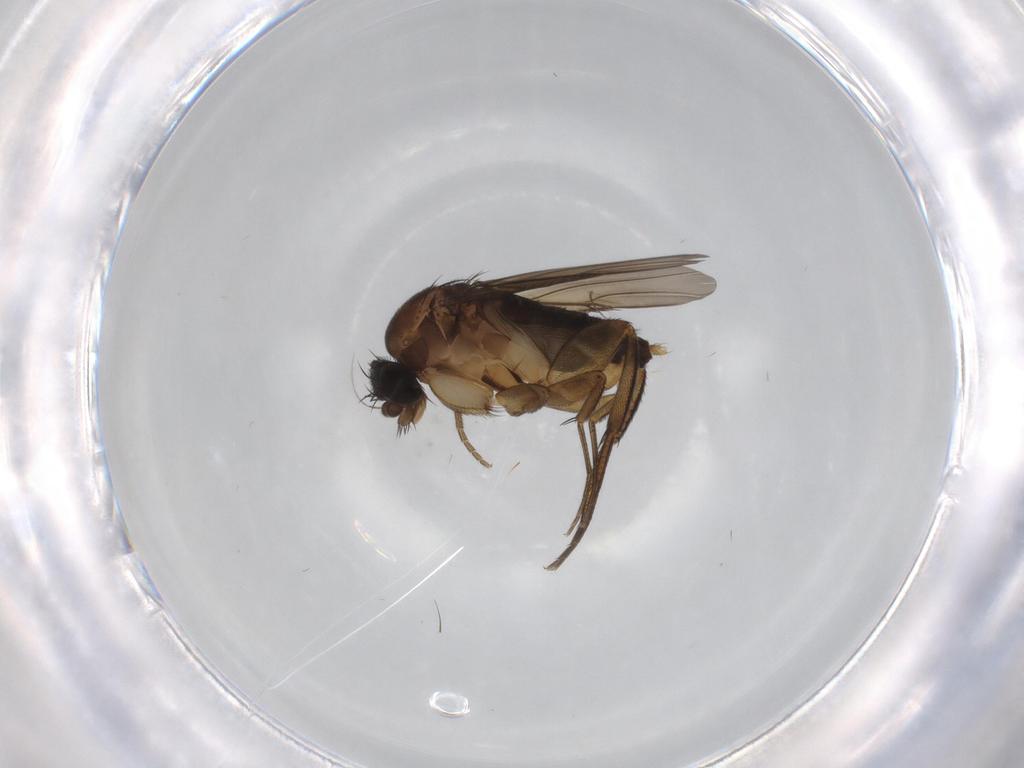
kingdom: Animalia
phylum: Arthropoda
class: Insecta
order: Diptera
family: Phoridae
